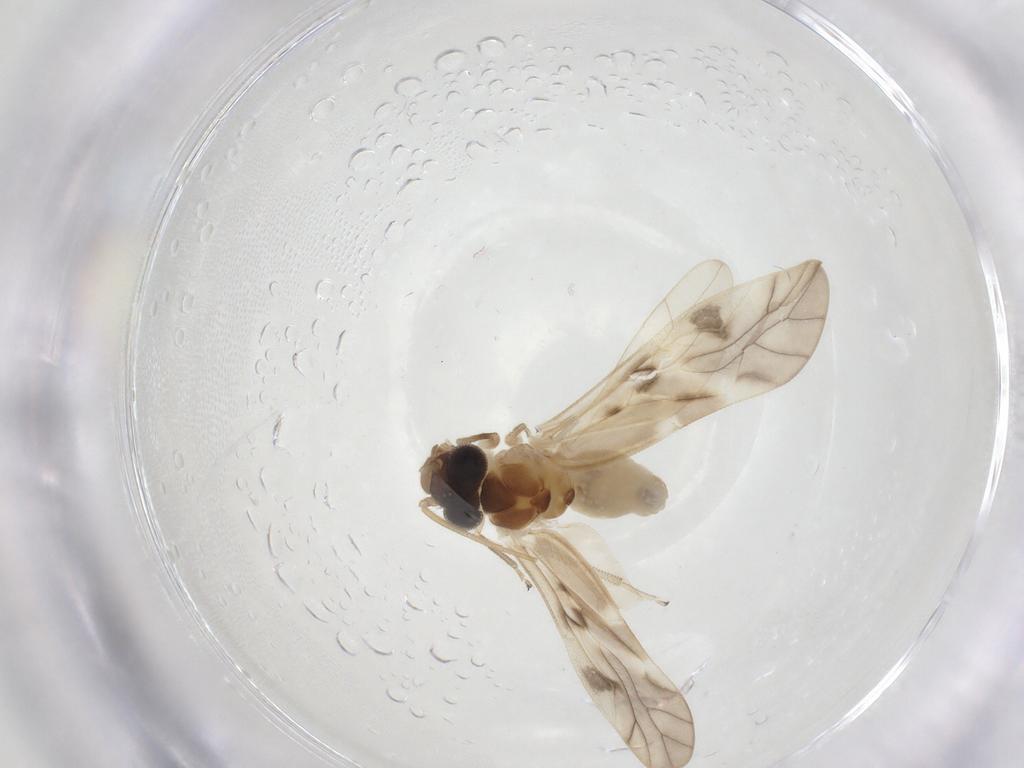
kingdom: Animalia
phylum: Arthropoda
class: Insecta
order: Psocodea
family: Caeciliusidae
